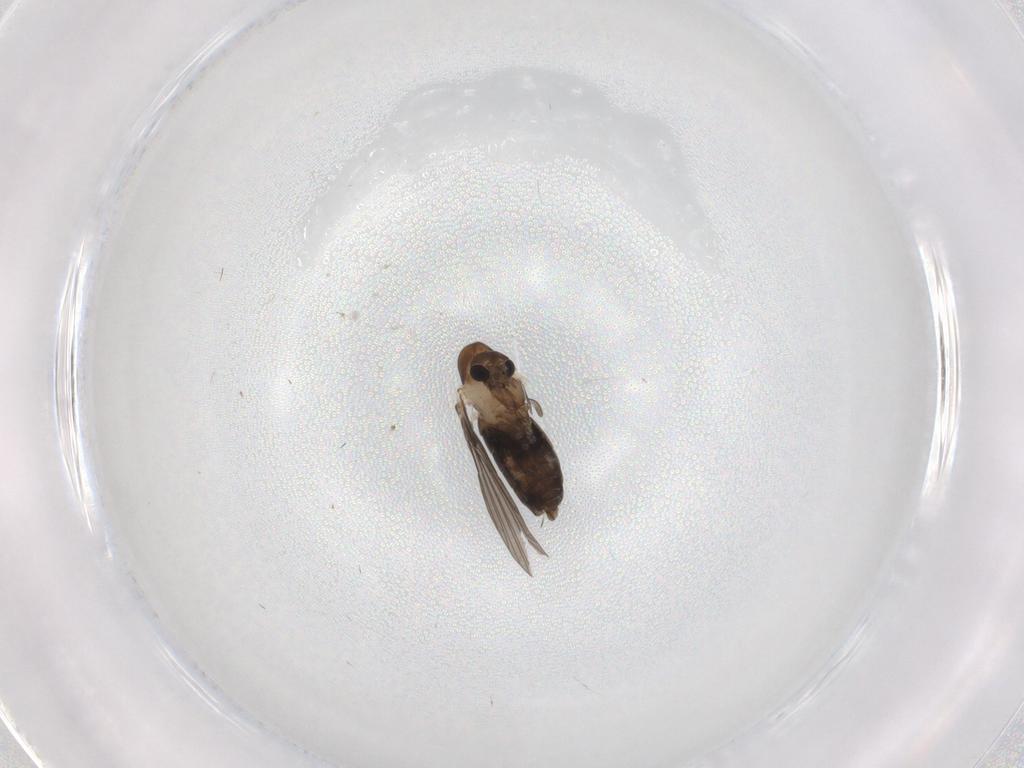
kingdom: Animalia
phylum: Arthropoda
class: Insecta
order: Diptera
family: Psychodidae
